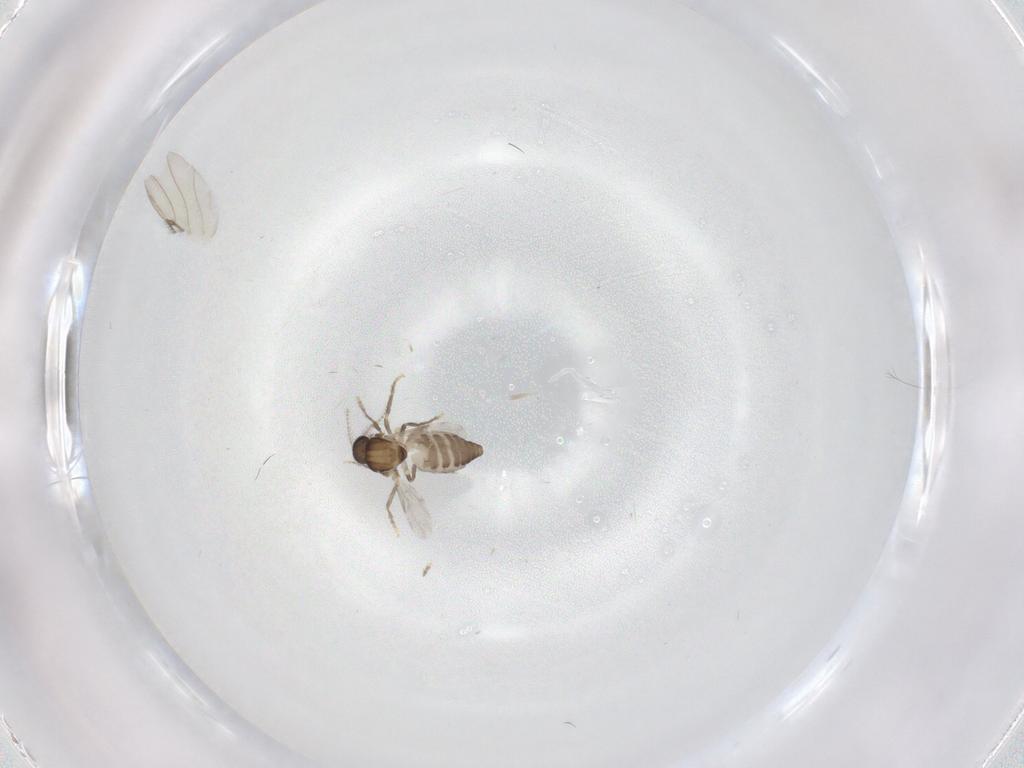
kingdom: Animalia
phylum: Arthropoda
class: Insecta
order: Diptera
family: Ceratopogonidae
